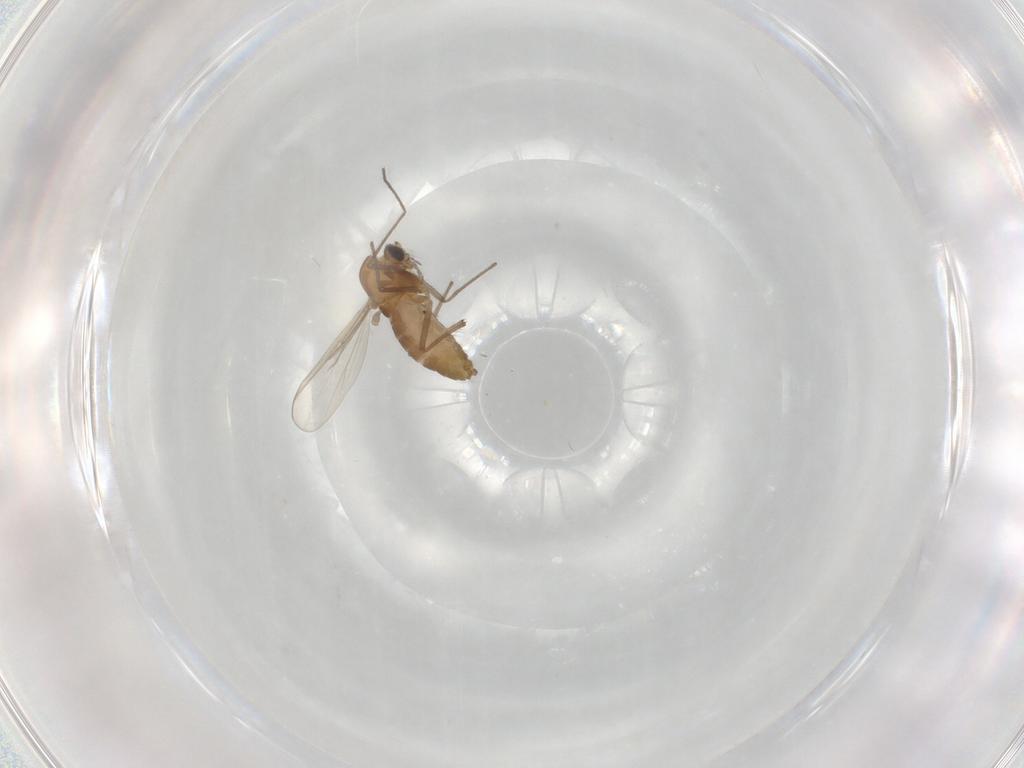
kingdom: Animalia
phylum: Arthropoda
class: Insecta
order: Diptera
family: Chironomidae
